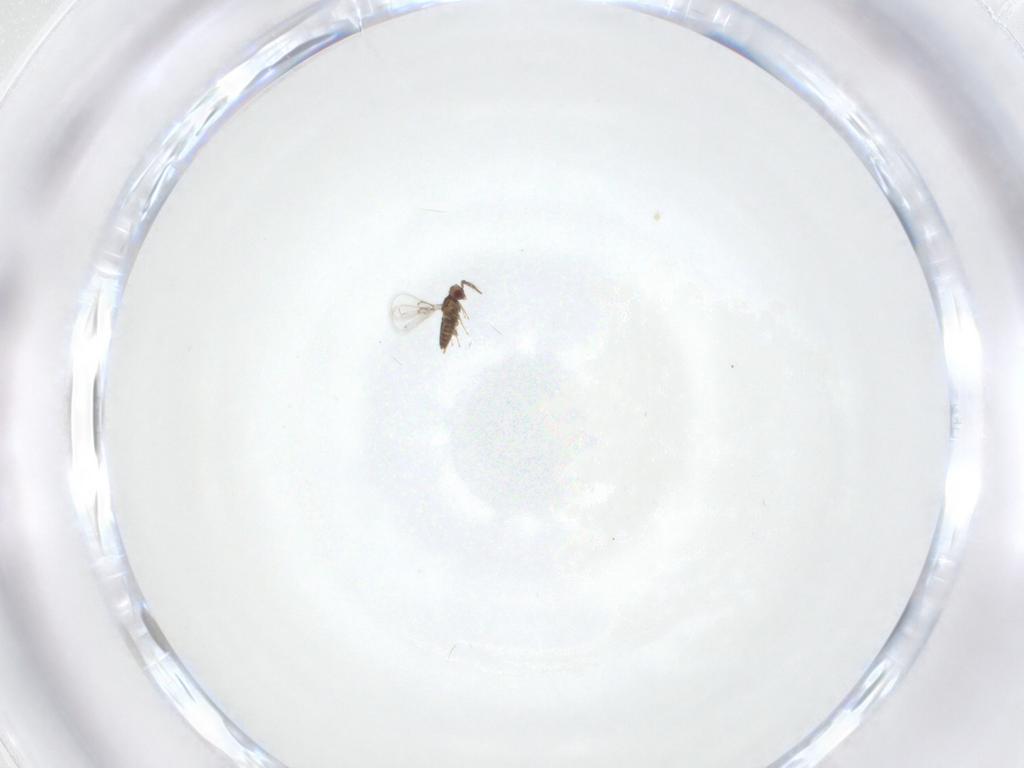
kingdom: Animalia
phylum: Arthropoda
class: Insecta
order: Hymenoptera
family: Trichogrammatidae
